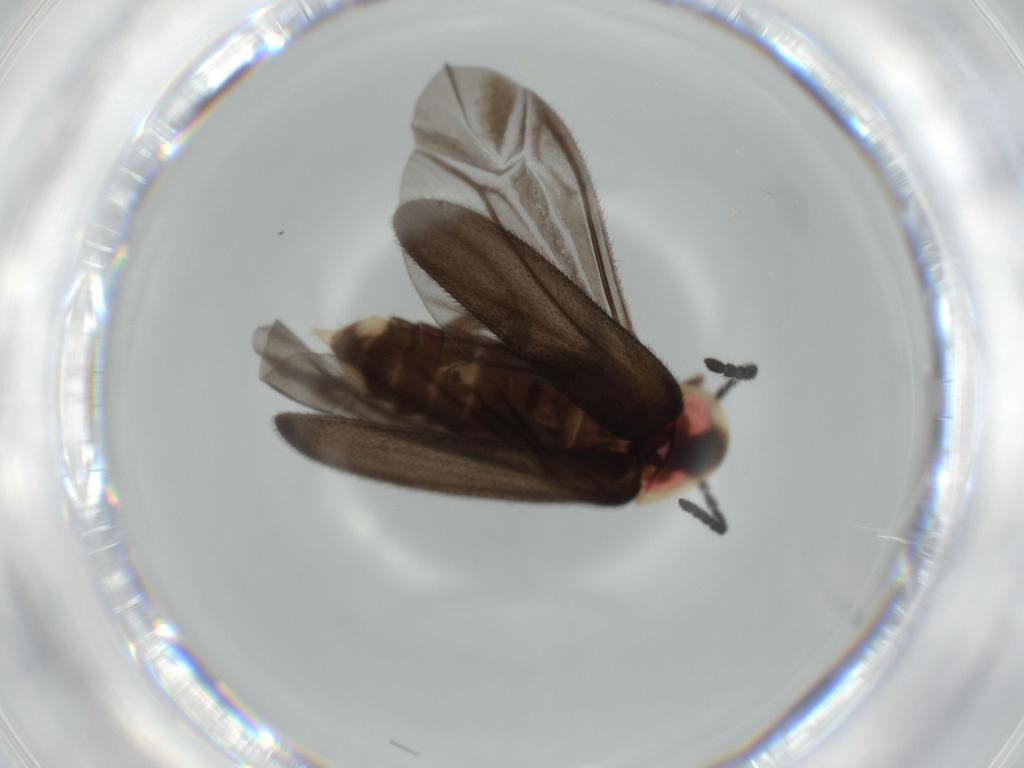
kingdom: Animalia
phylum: Arthropoda
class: Insecta
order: Coleoptera
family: Lampyridae
